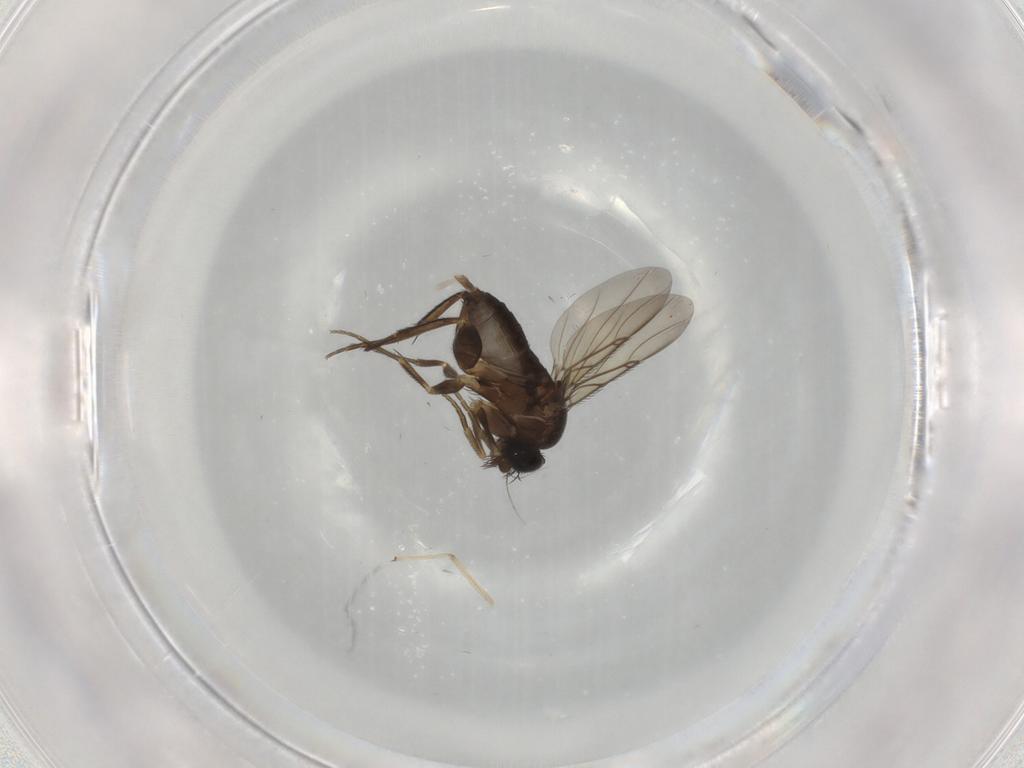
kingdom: Animalia
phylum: Arthropoda
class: Insecta
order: Diptera
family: Phoridae
